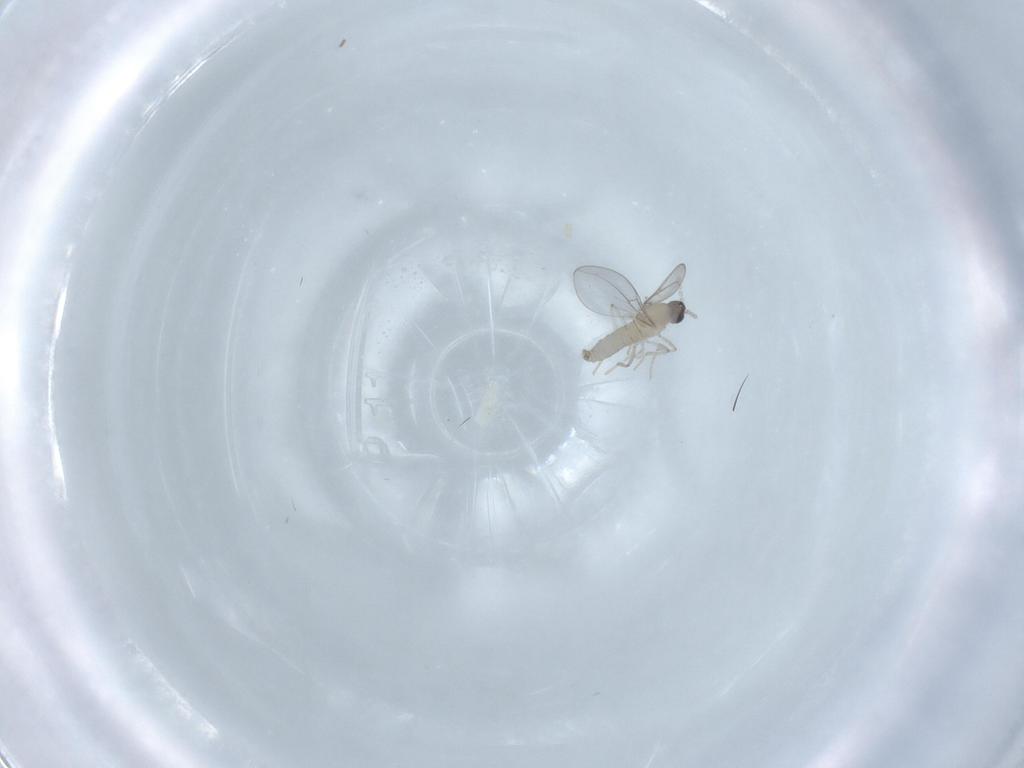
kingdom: Animalia
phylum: Arthropoda
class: Insecta
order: Diptera
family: Cecidomyiidae
